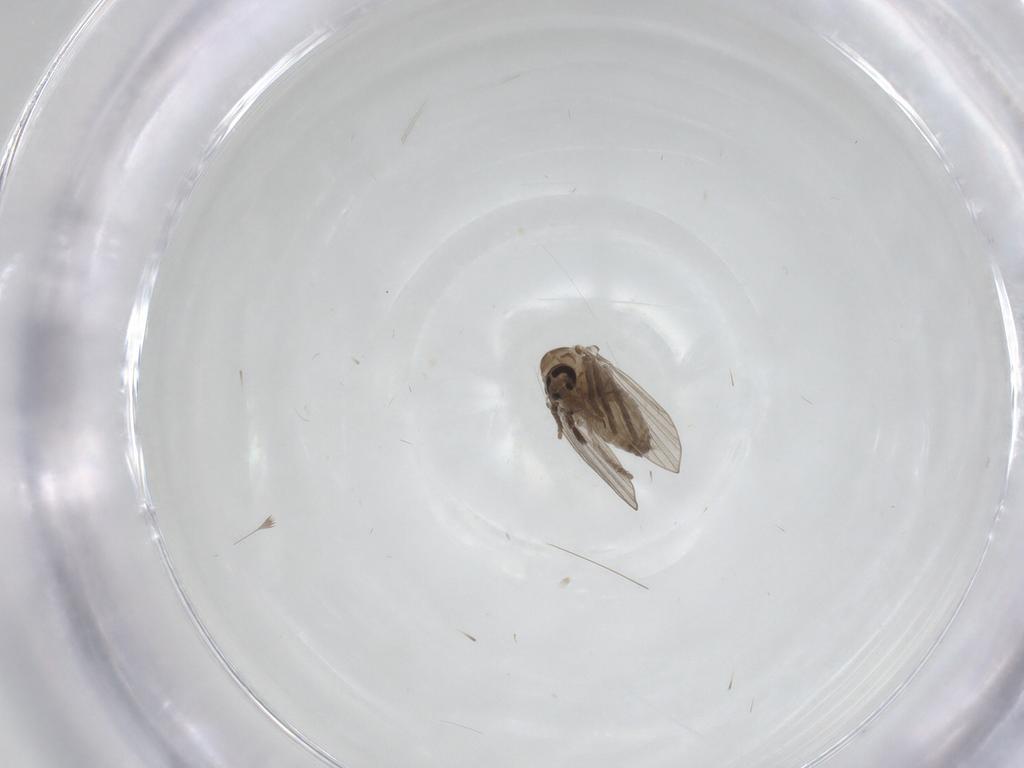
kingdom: Animalia
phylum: Arthropoda
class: Insecta
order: Diptera
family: Psychodidae
